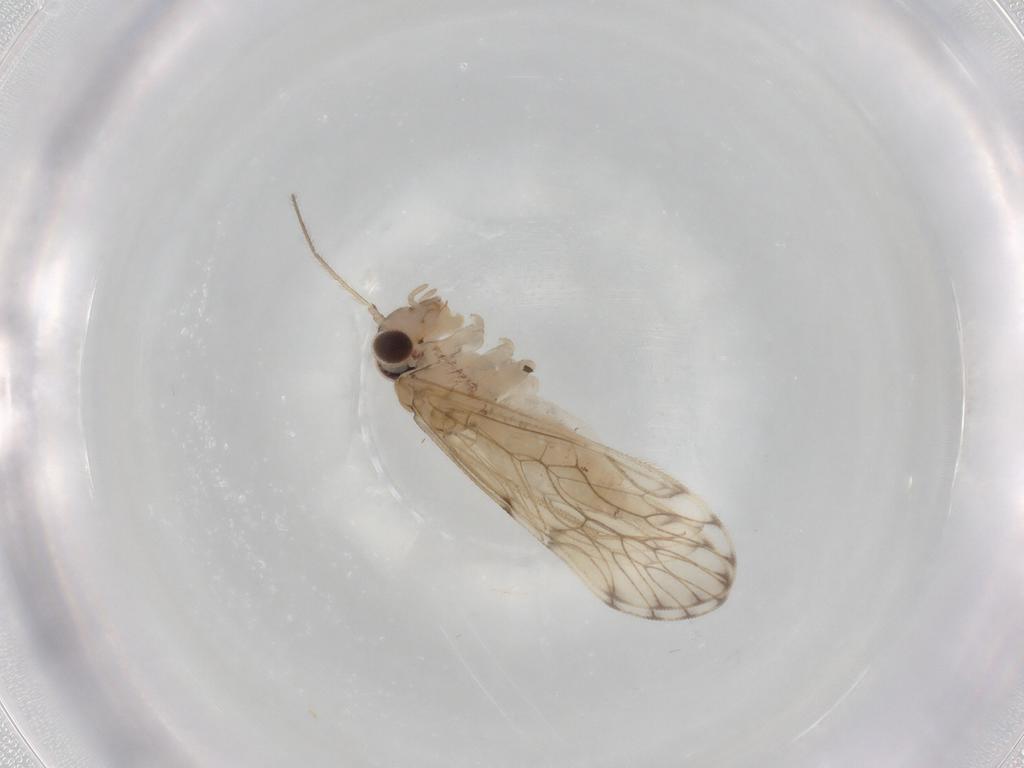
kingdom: Animalia
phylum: Arthropoda
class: Insecta
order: Psocodea
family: Epipsocidae
